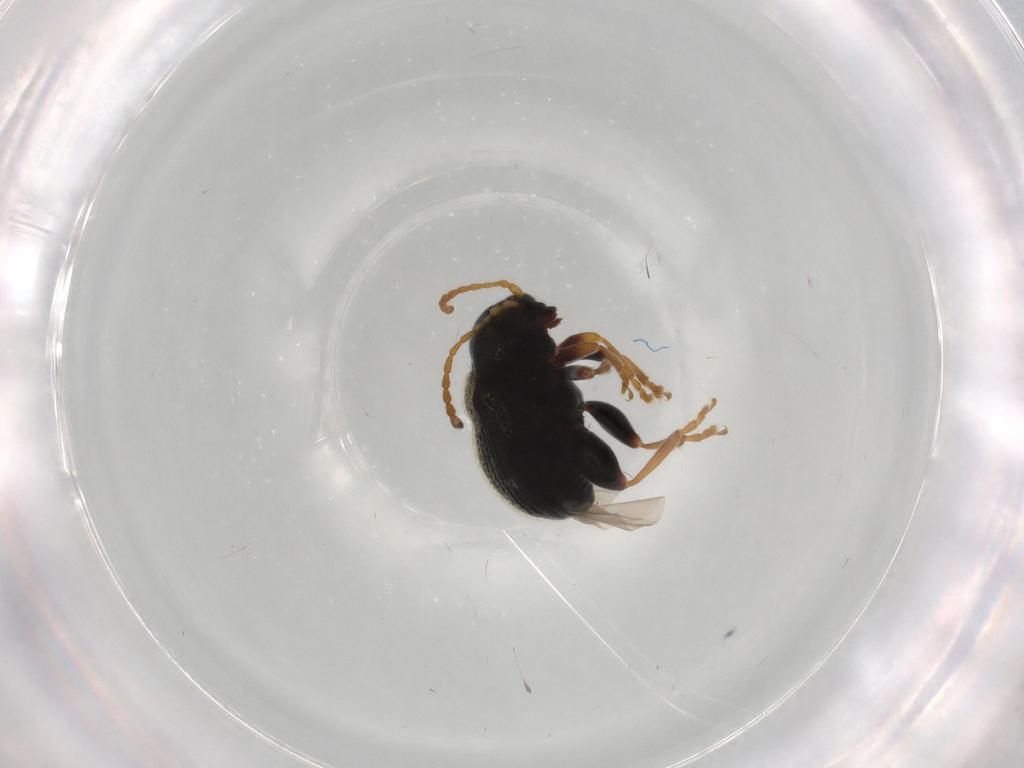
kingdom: Animalia
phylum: Arthropoda
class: Insecta
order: Coleoptera
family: Chrysomelidae
